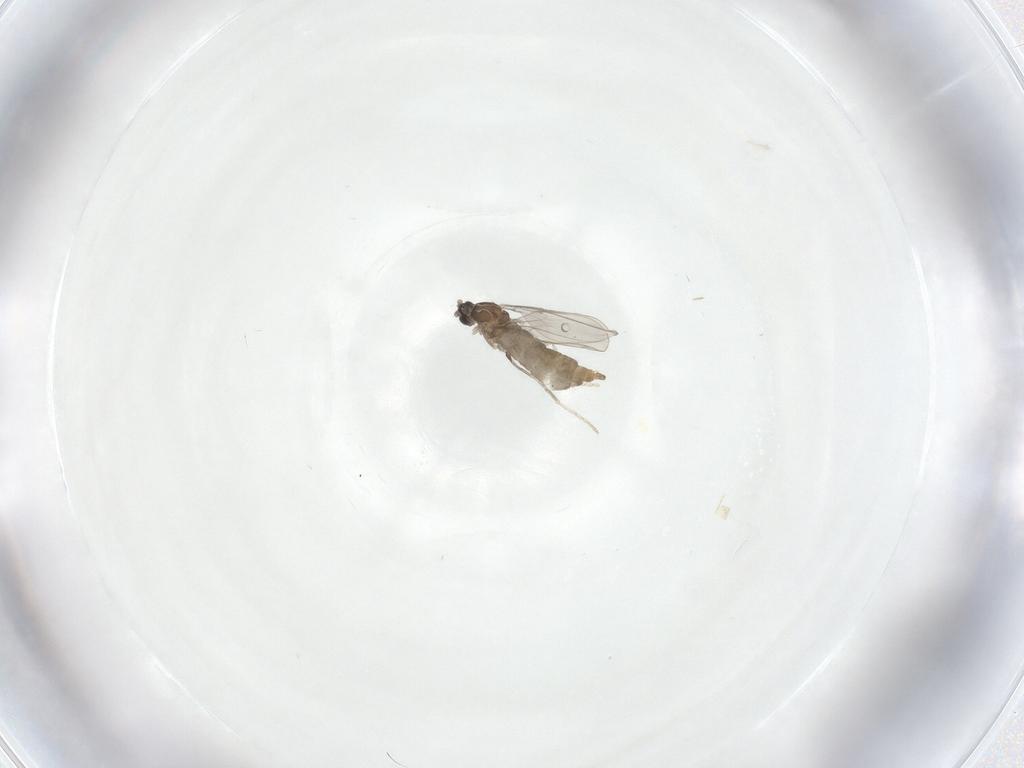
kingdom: Animalia
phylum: Arthropoda
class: Insecta
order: Diptera
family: Cecidomyiidae
